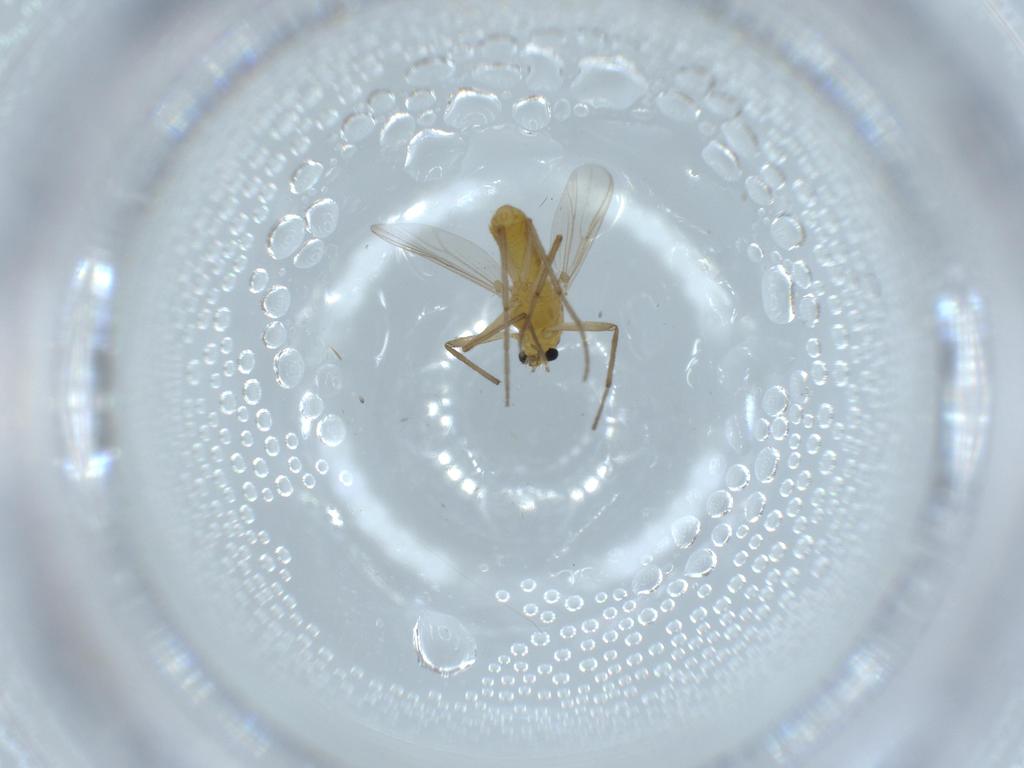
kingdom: Animalia
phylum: Arthropoda
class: Insecta
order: Diptera
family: Chironomidae
